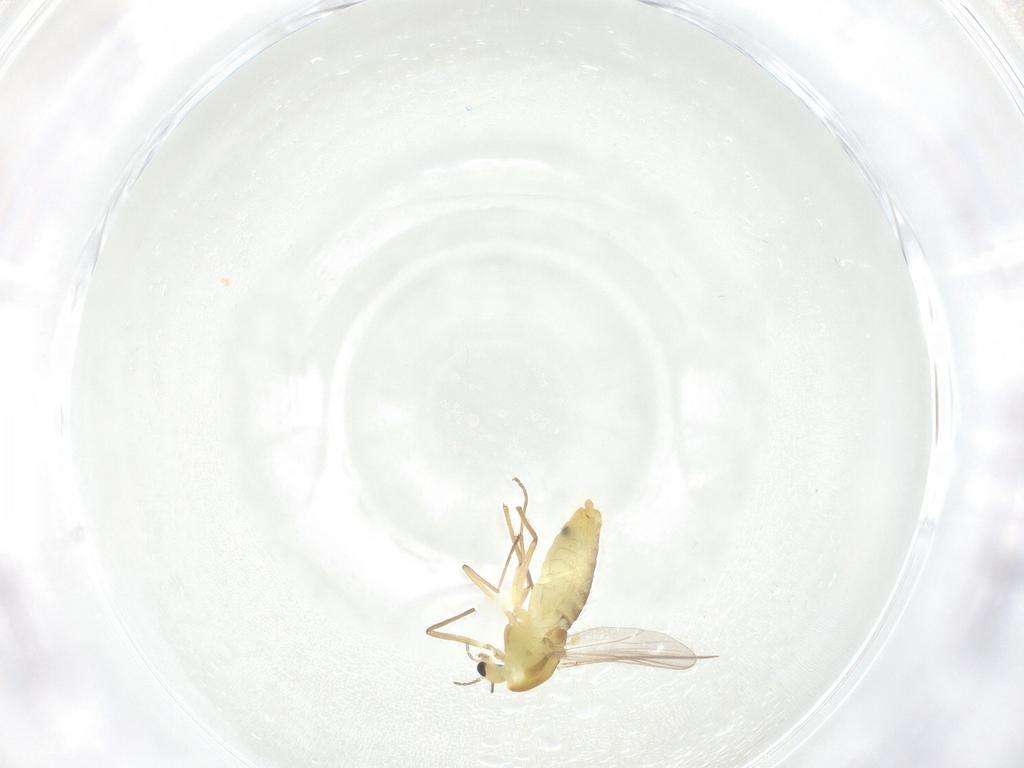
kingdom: Animalia
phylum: Arthropoda
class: Insecta
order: Diptera
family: Chironomidae
